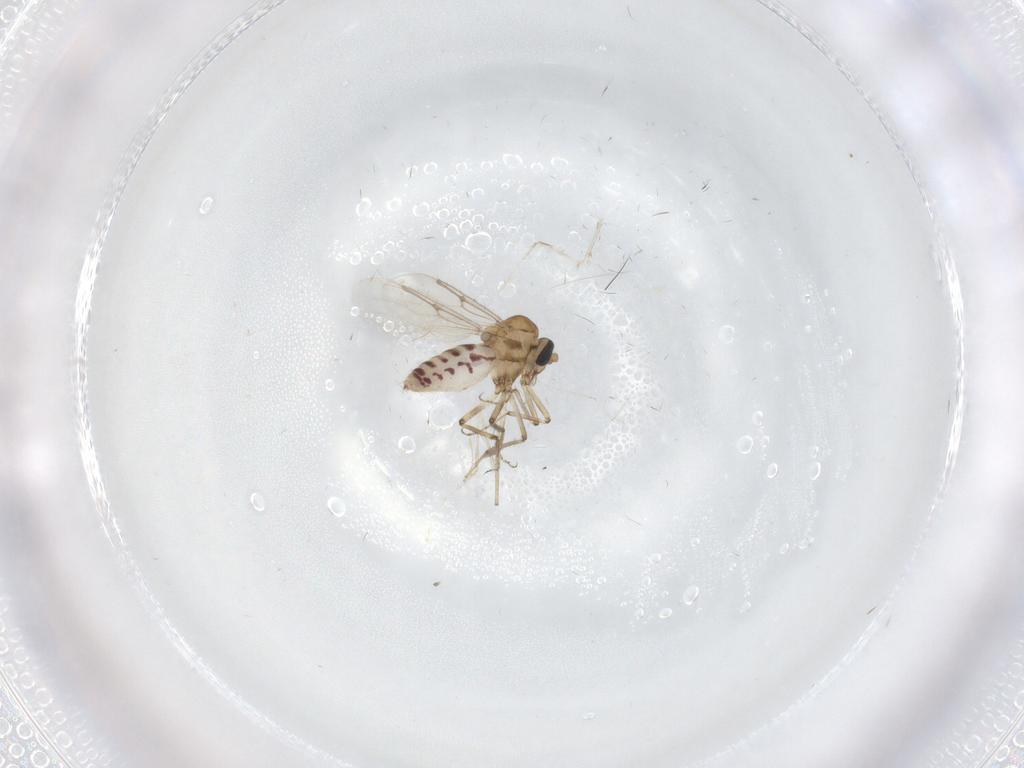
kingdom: Animalia
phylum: Arthropoda
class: Insecta
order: Diptera
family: Ceratopogonidae
